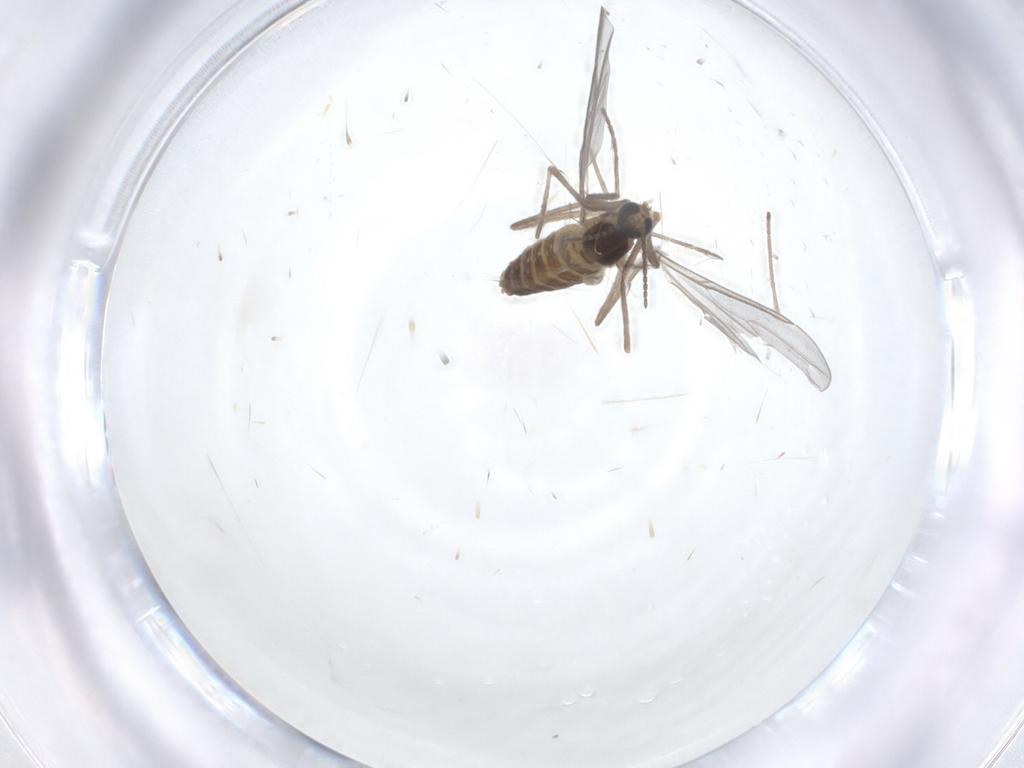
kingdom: Animalia
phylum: Arthropoda
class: Insecta
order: Diptera
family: Cecidomyiidae
